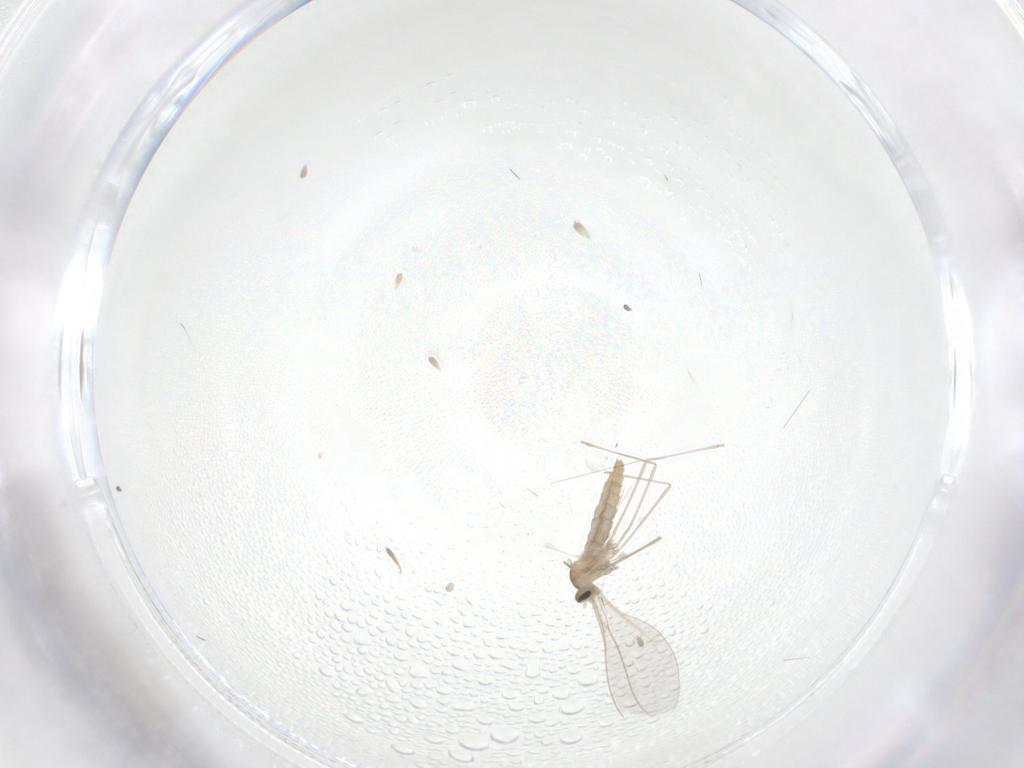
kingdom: Animalia
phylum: Arthropoda
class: Insecta
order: Diptera
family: Cecidomyiidae
